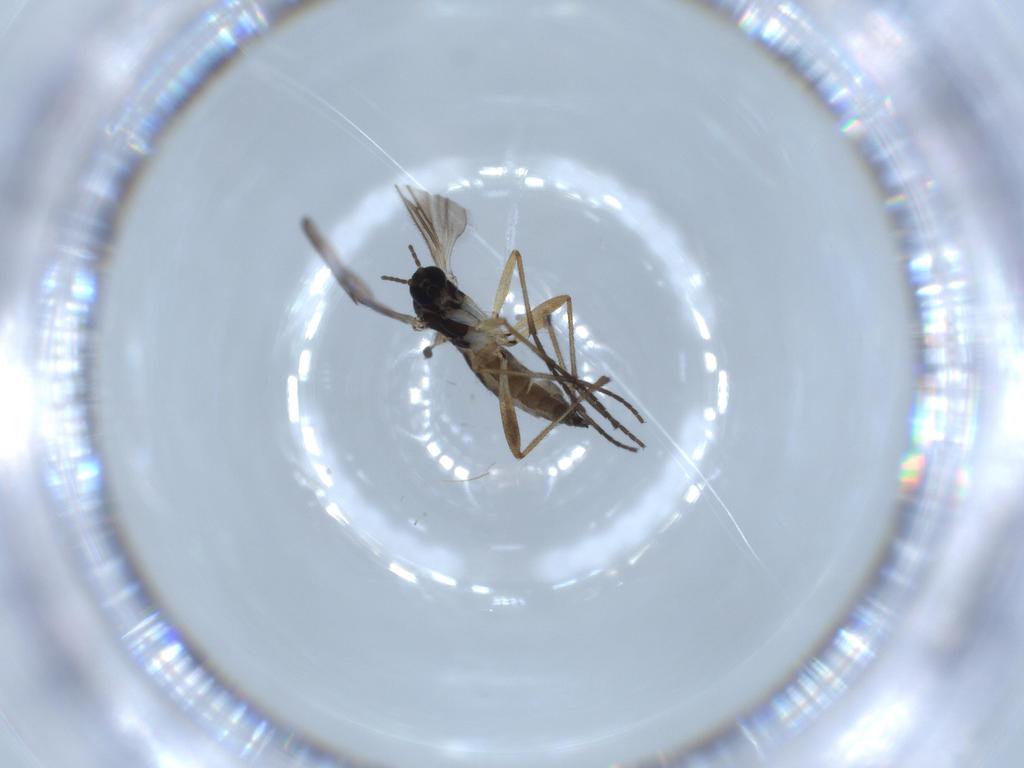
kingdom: Animalia
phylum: Arthropoda
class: Insecta
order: Diptera
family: Sciaridae
